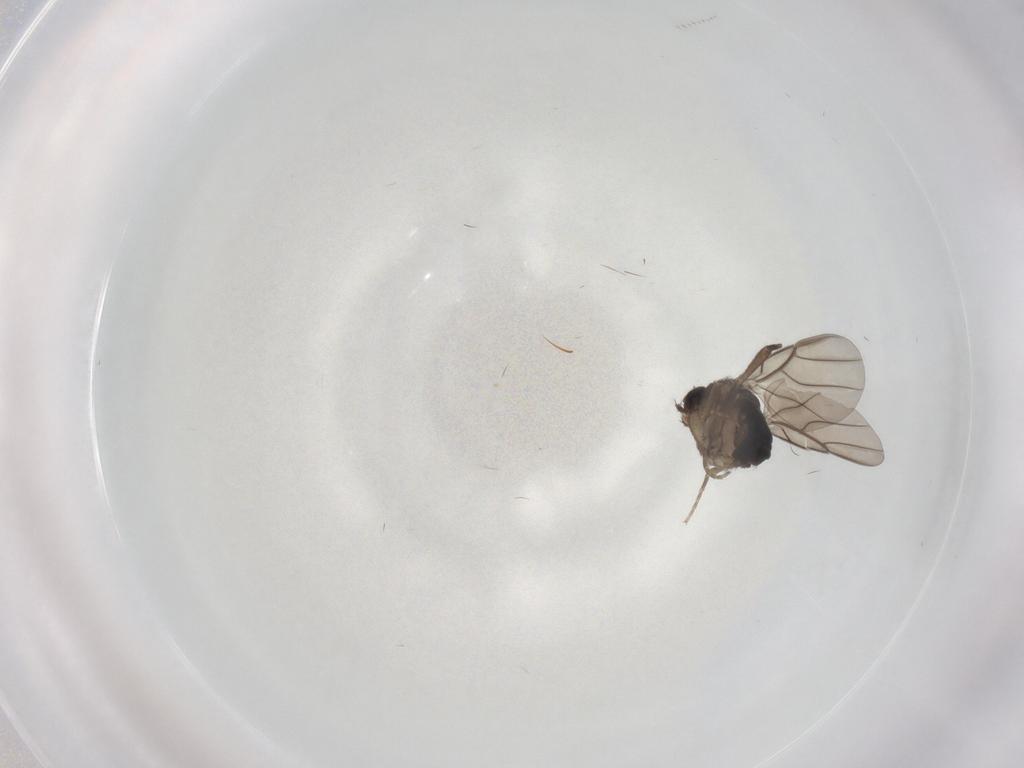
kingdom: Animalia
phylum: Arthropoda
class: Insecta
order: Diptera
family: Phoridae
